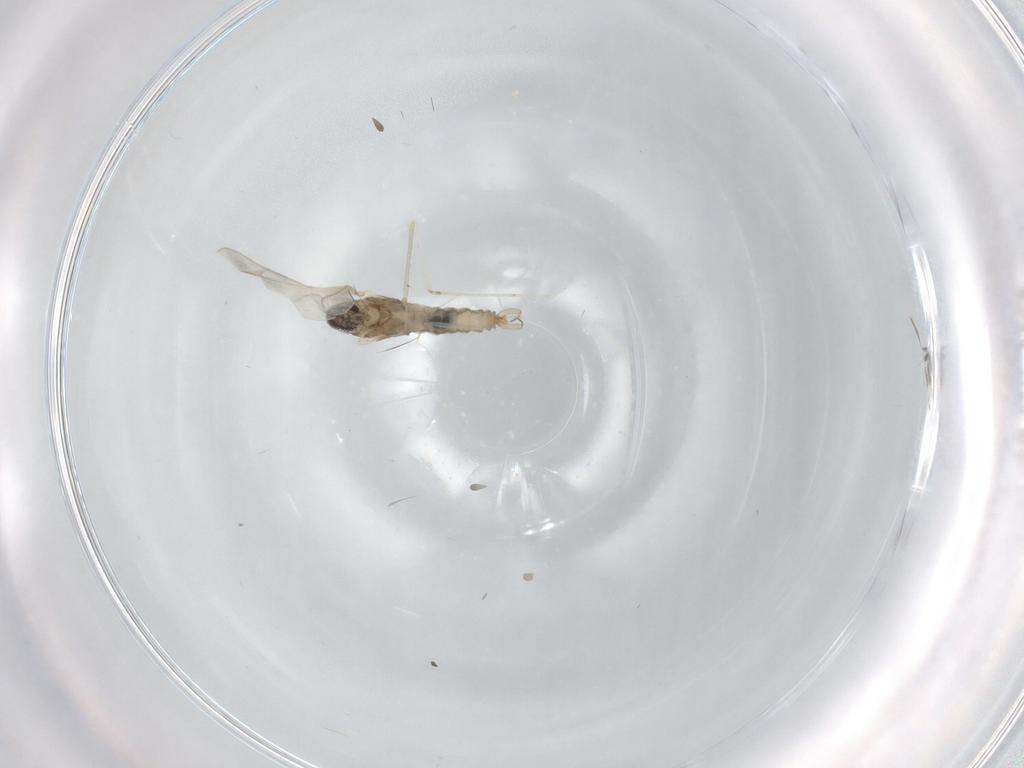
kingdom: Animalia
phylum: Arthropoda
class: Insecta
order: Diptera
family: Cecidomyiidae
